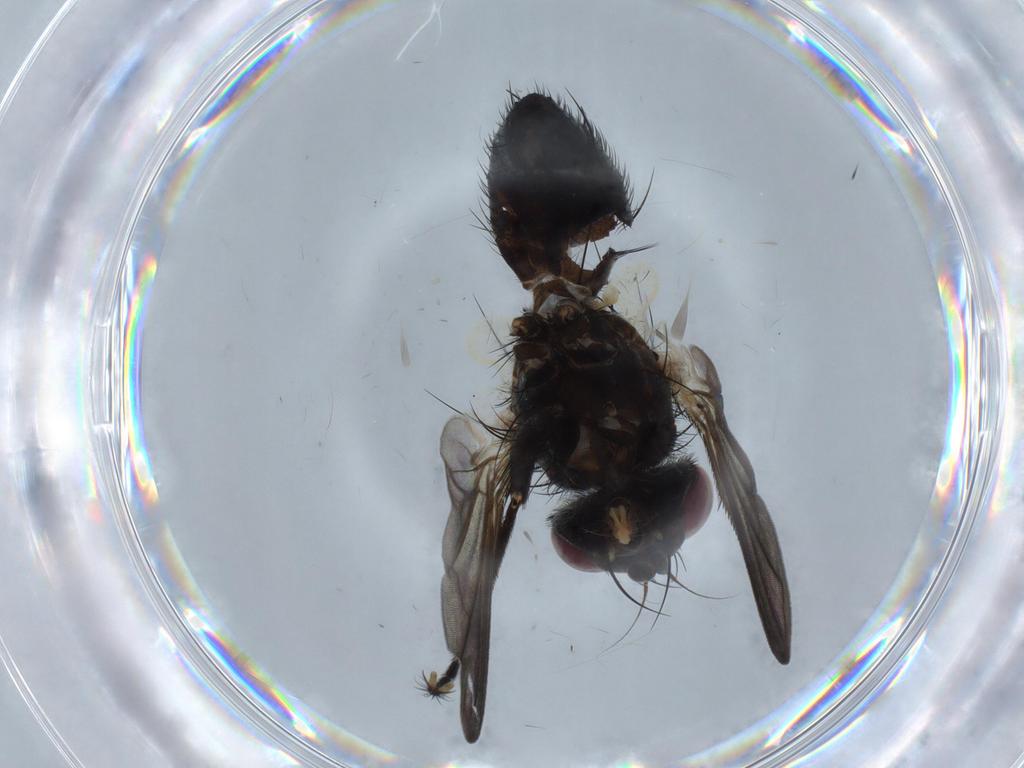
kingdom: Animalia
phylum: Arthropoda
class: Insecta
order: Diptera
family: Psychodidae
